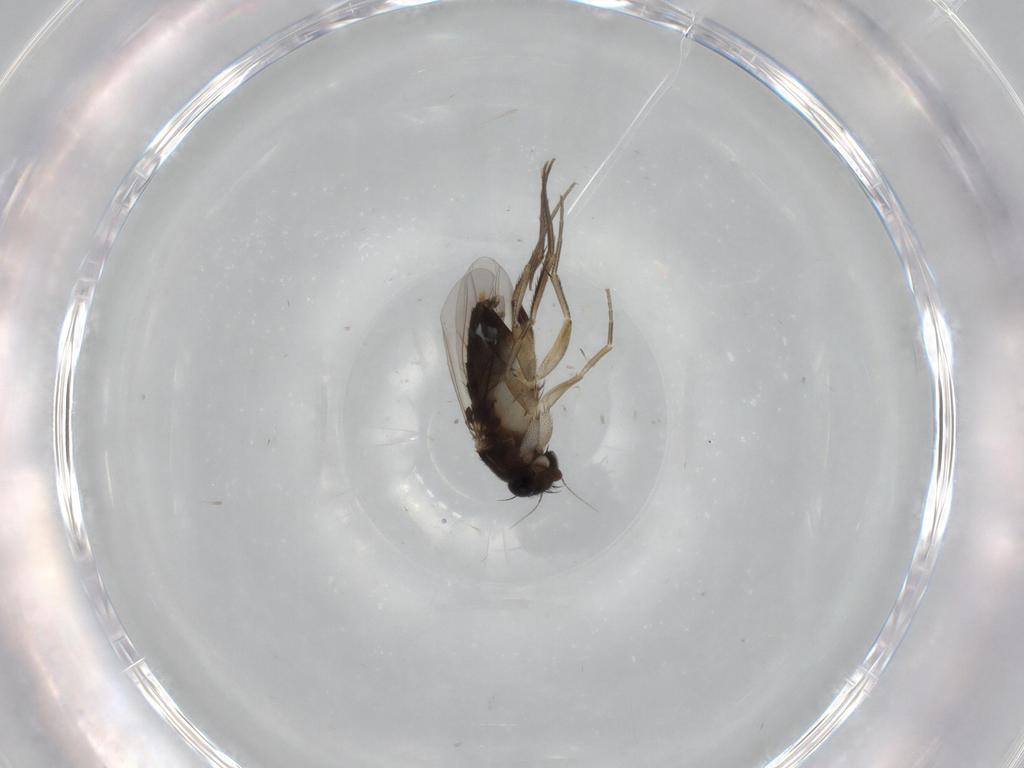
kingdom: Animalia
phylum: Arthropoda
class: Insecta
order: Diptera
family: Phoridae
